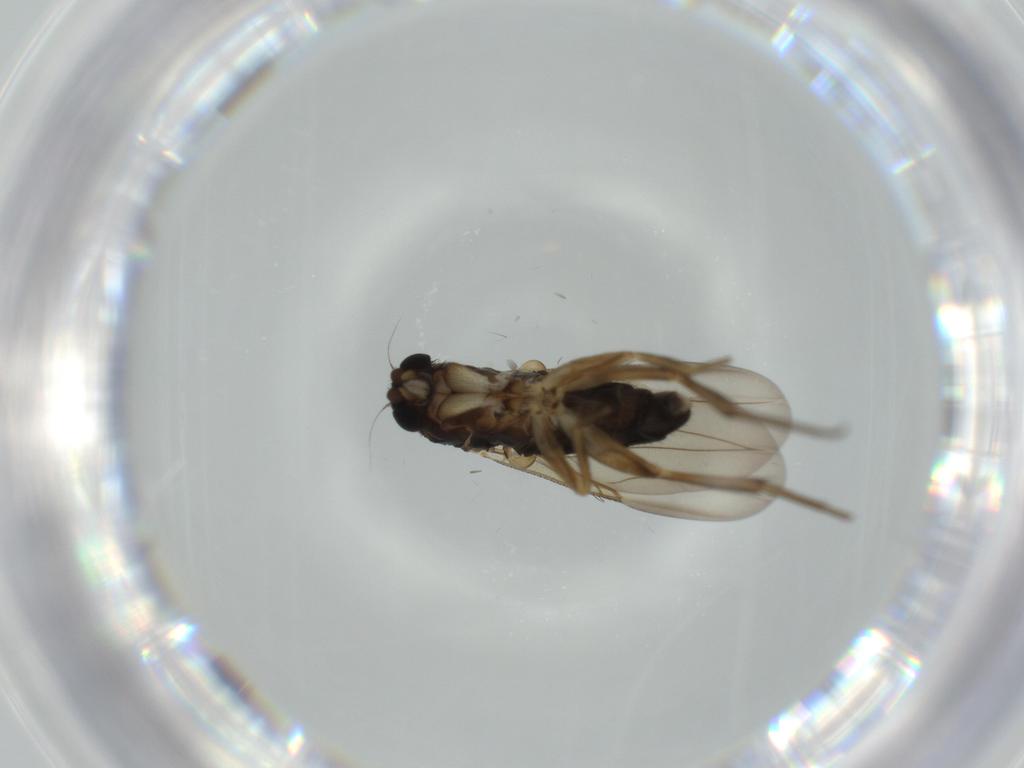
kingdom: Animalia
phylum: Arthropoda
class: Insecta
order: Diptera
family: Phoridae
